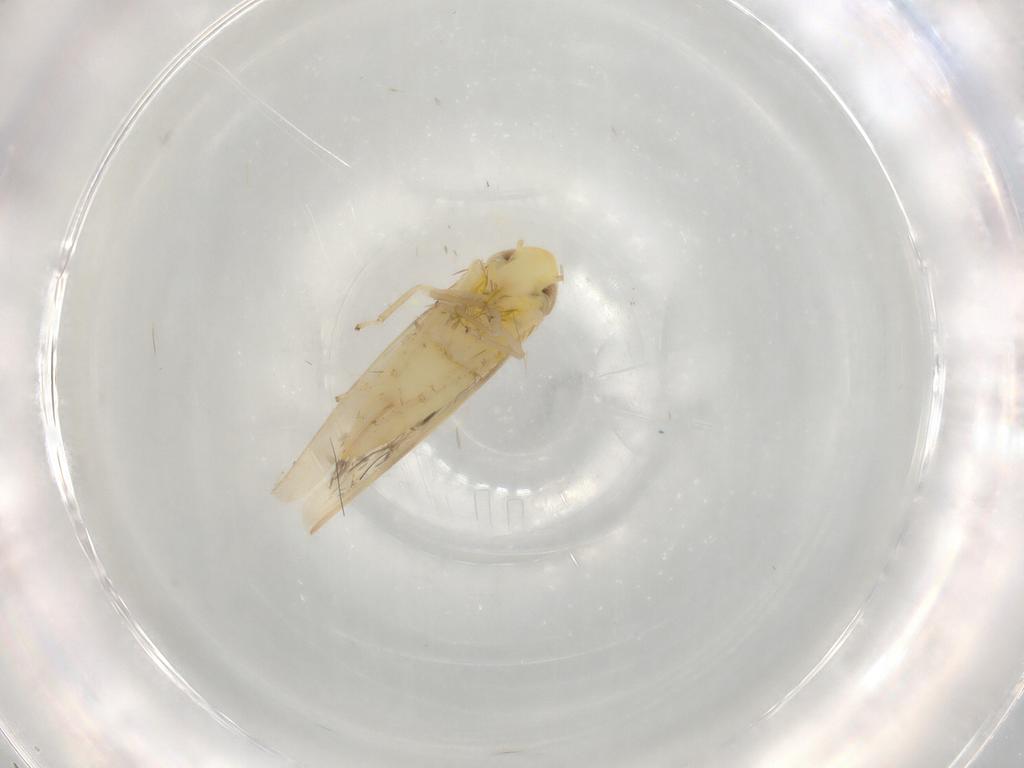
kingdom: Animalia
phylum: Arthropoda
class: Insecta
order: Hemiptera
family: Cicadellidae
